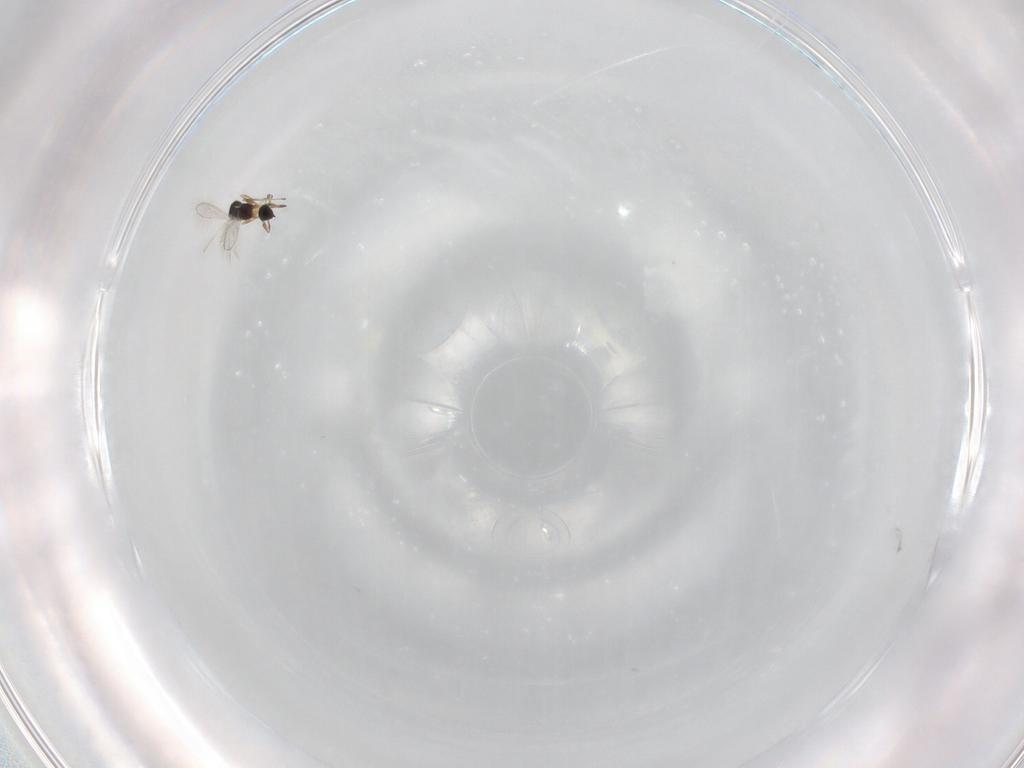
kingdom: Animalia
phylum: Arthropoda
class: Insecta
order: Hymenoptera
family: Mymaridae
